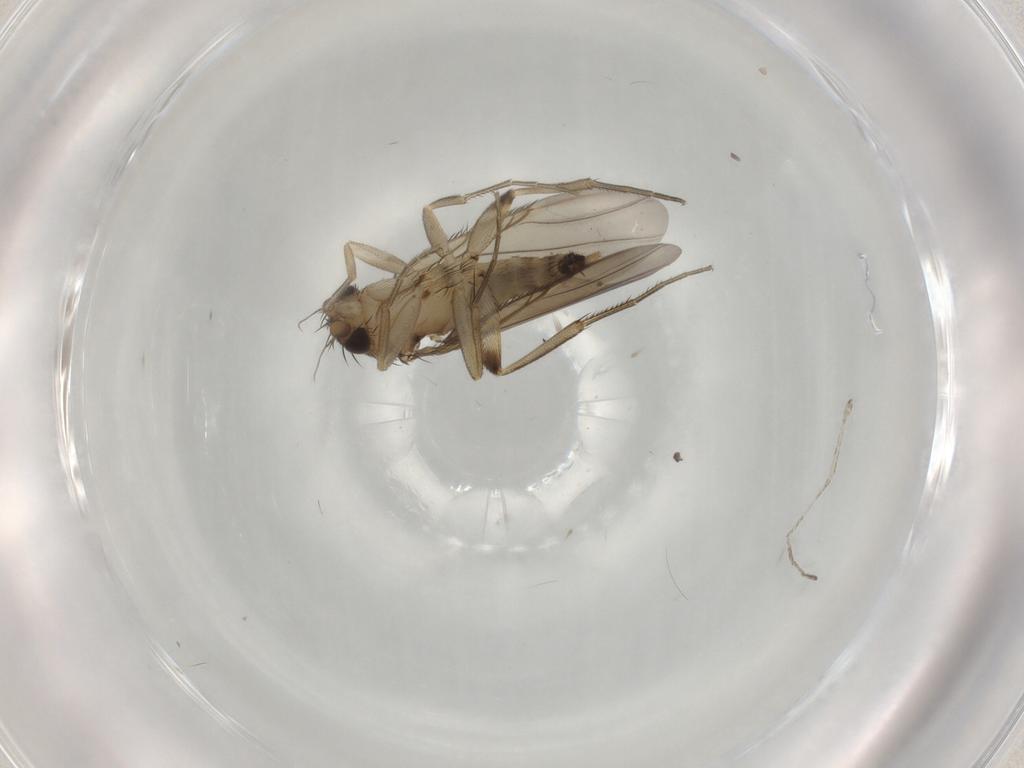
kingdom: Animalia
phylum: Arthropoda
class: Insecta
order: Diptera
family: Phoridae
